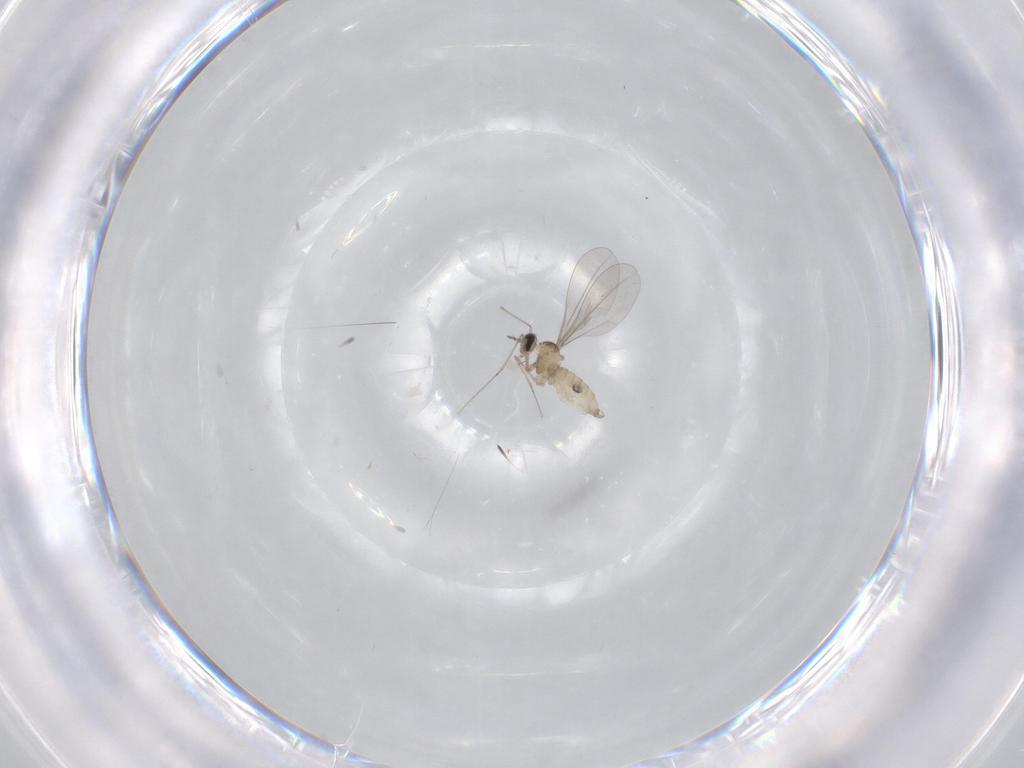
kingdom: Animalia
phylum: Arthropoda
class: Insecta
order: Diptera
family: Cecidomyiidae
